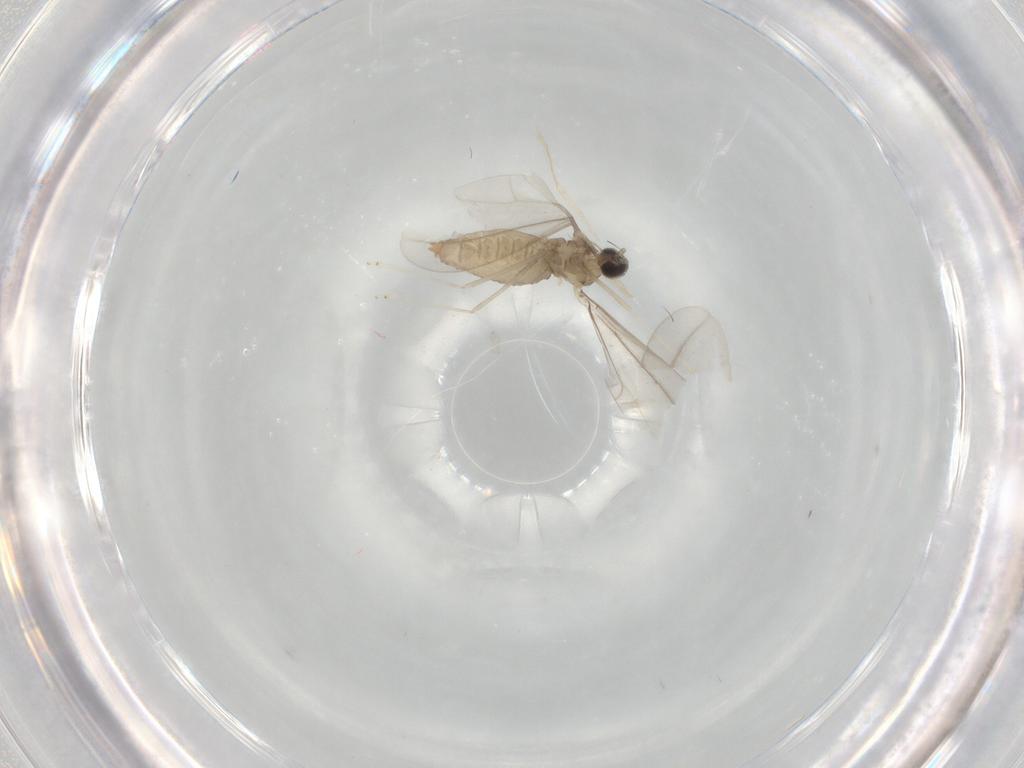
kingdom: Animalia
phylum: Arthropoda
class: Insecta
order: Diptera
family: Cecidomyiidae
